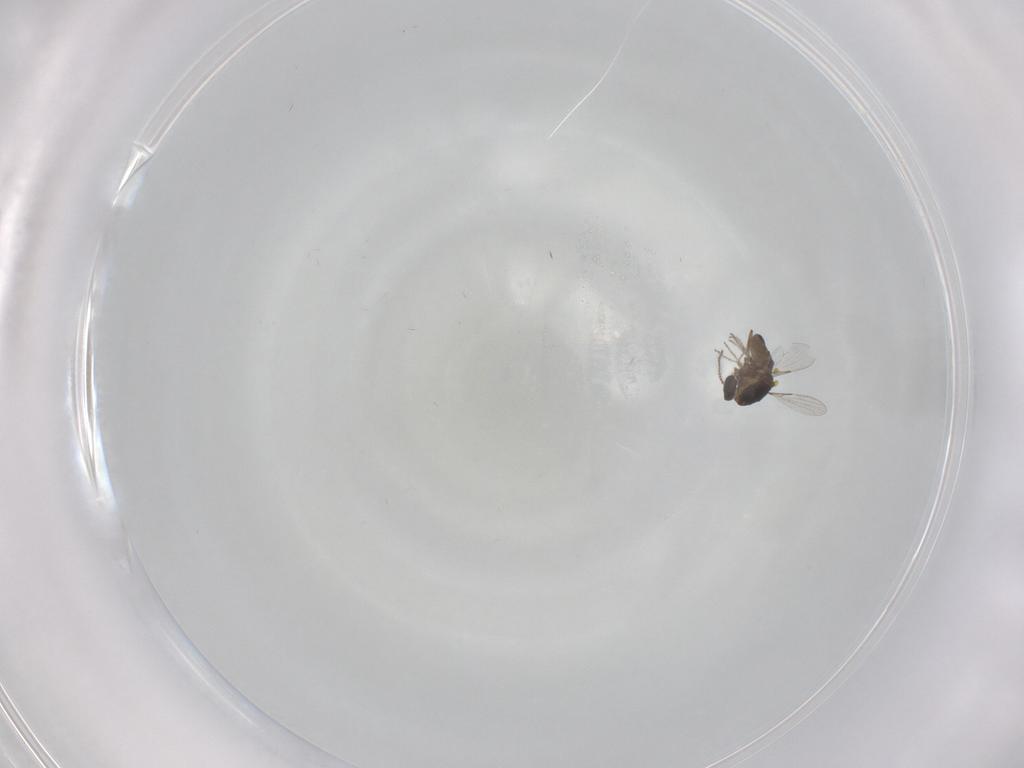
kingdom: Animalia
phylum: Arthropoda
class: Insecta
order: Diptera
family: Ceratopogonidae
